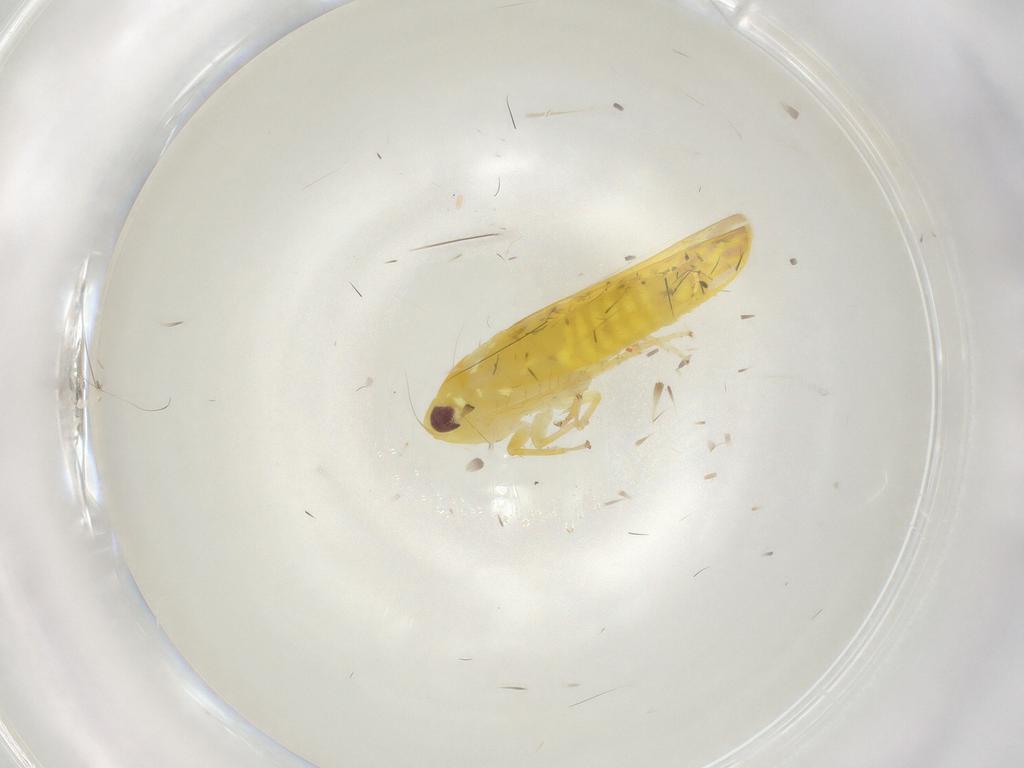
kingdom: Animalia
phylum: Arthropoda
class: Insecta
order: Hemiptera
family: Cicadellidae
